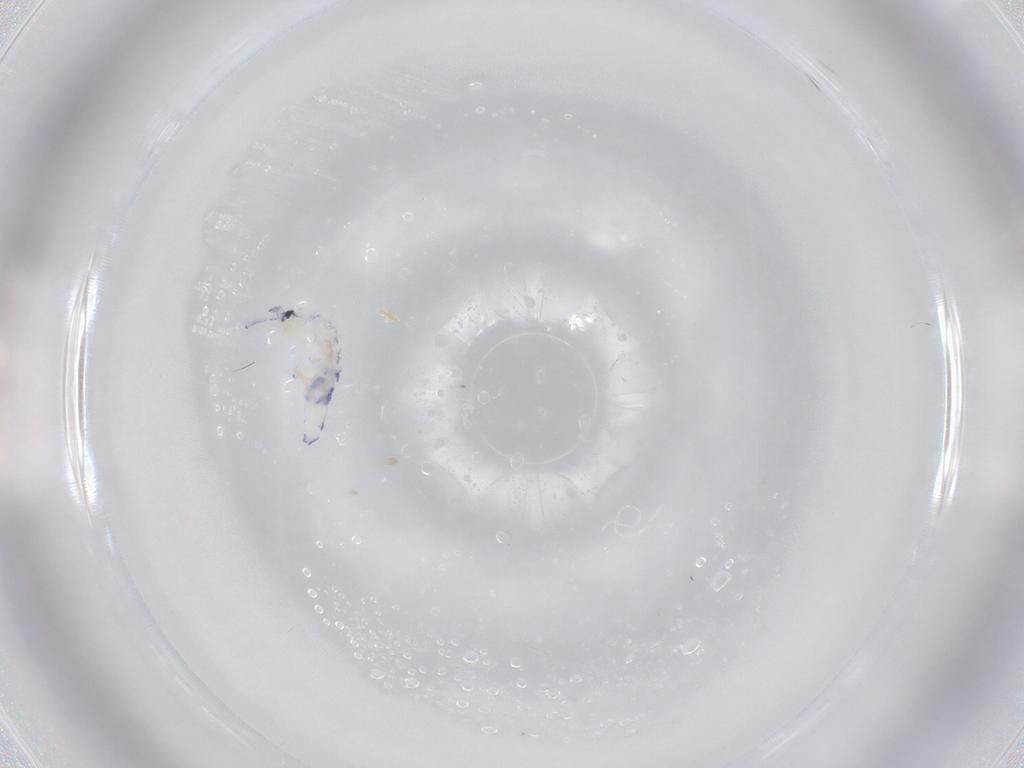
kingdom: Animalia
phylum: Arthropoda
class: Collembola
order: Entomobryomorpha
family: Entomobryidae
